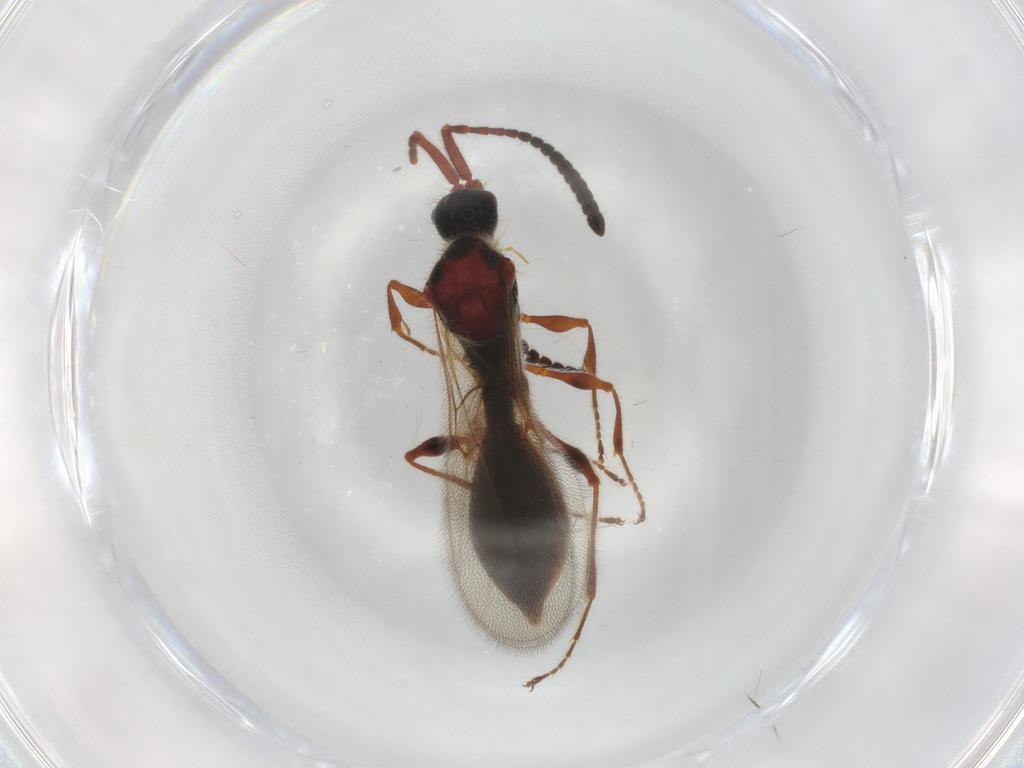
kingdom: Animalia
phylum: Arthropoda
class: Insecta
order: Hymenoptera
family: Diapriidae
